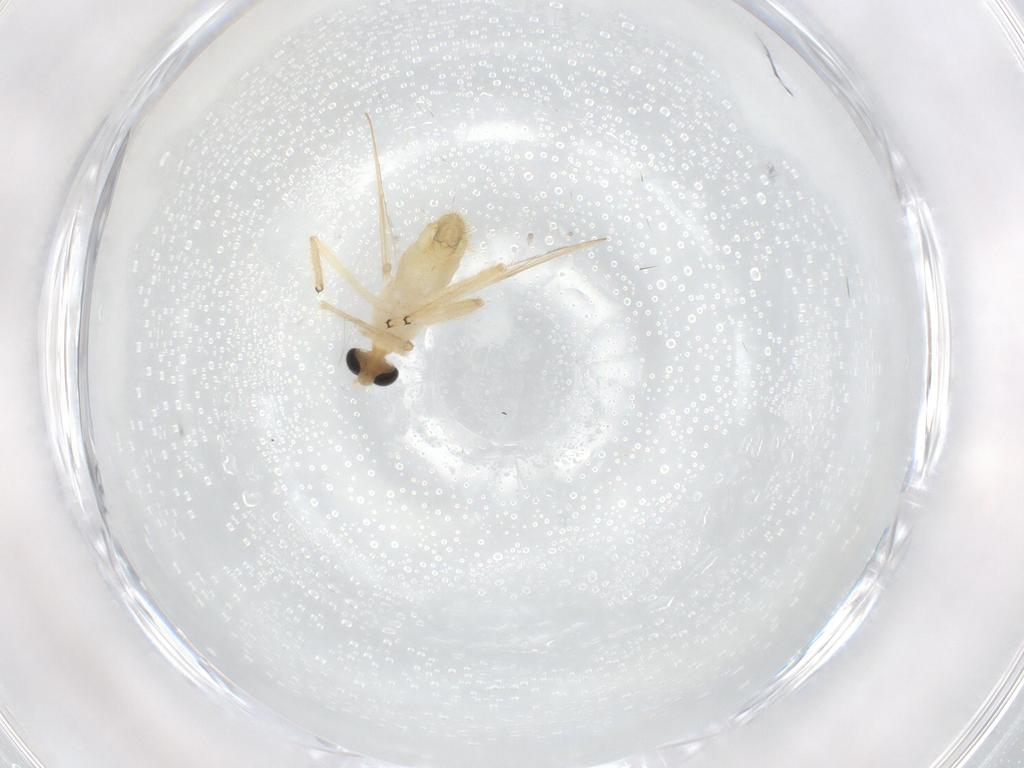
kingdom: Animalia
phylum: Arthropoda
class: Insecta
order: Diptera
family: Chironomidae
